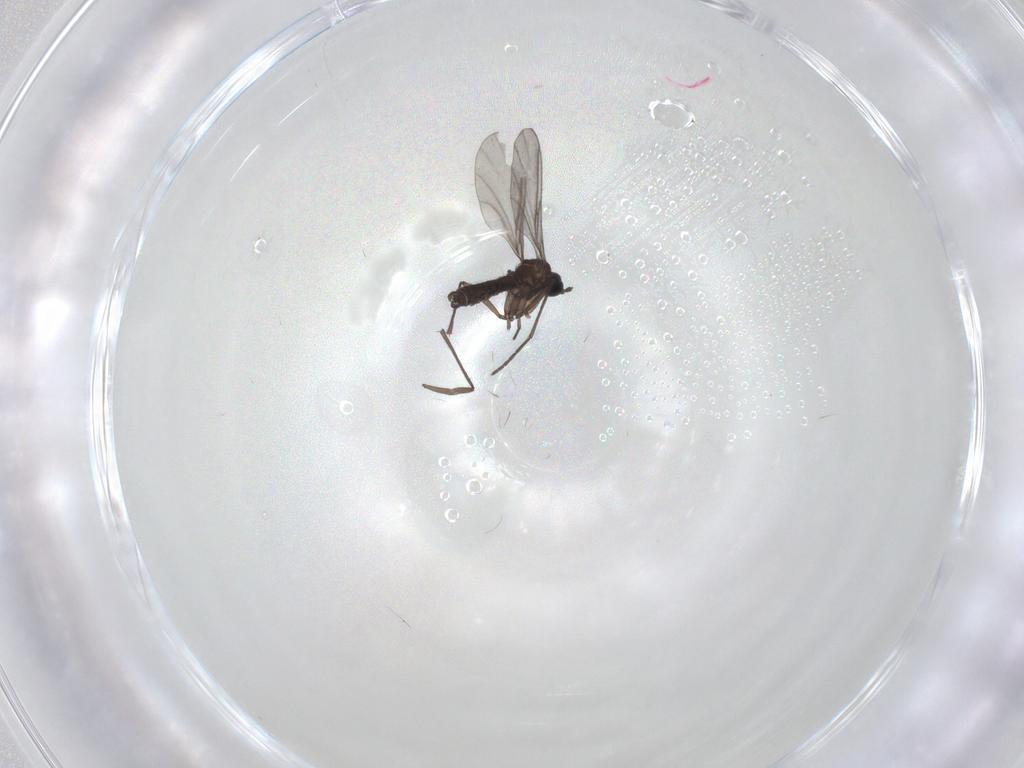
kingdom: Animalia
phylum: Arthropoda
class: Insecta
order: Diptera
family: Cecidomyiidae
